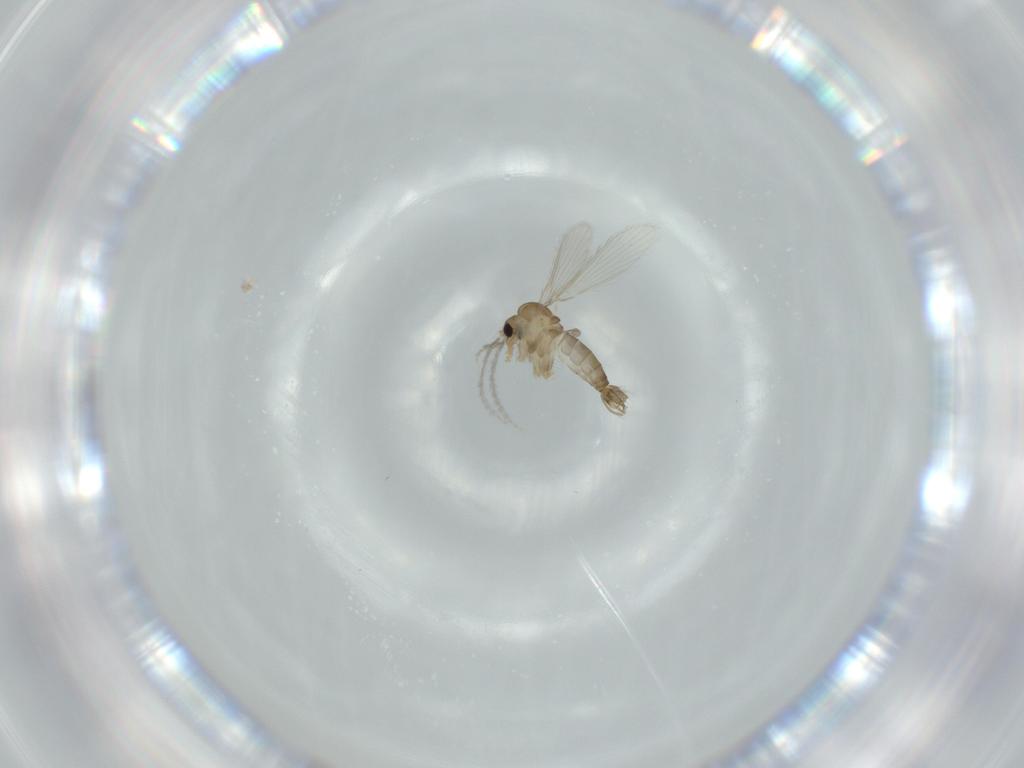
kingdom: Animalia
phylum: Arthropoda
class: Insecta
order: Diptera
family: Psychodidae
